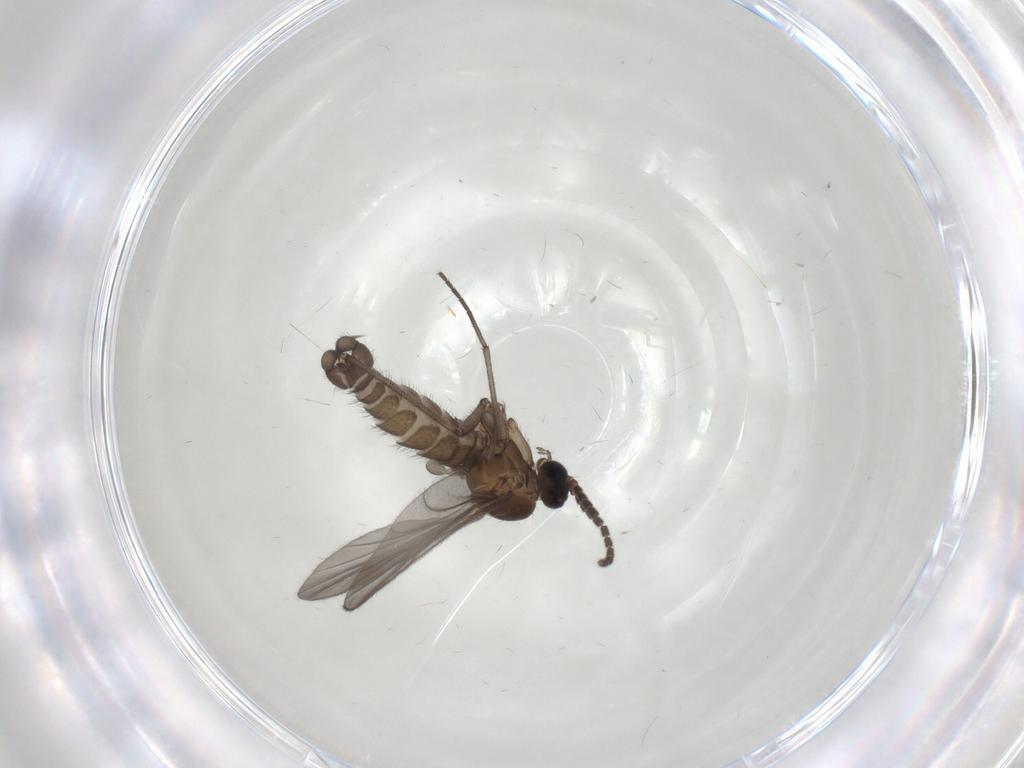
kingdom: Animalia
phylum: Arthropoda
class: Insecta
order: Diptera
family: Sciaridae
